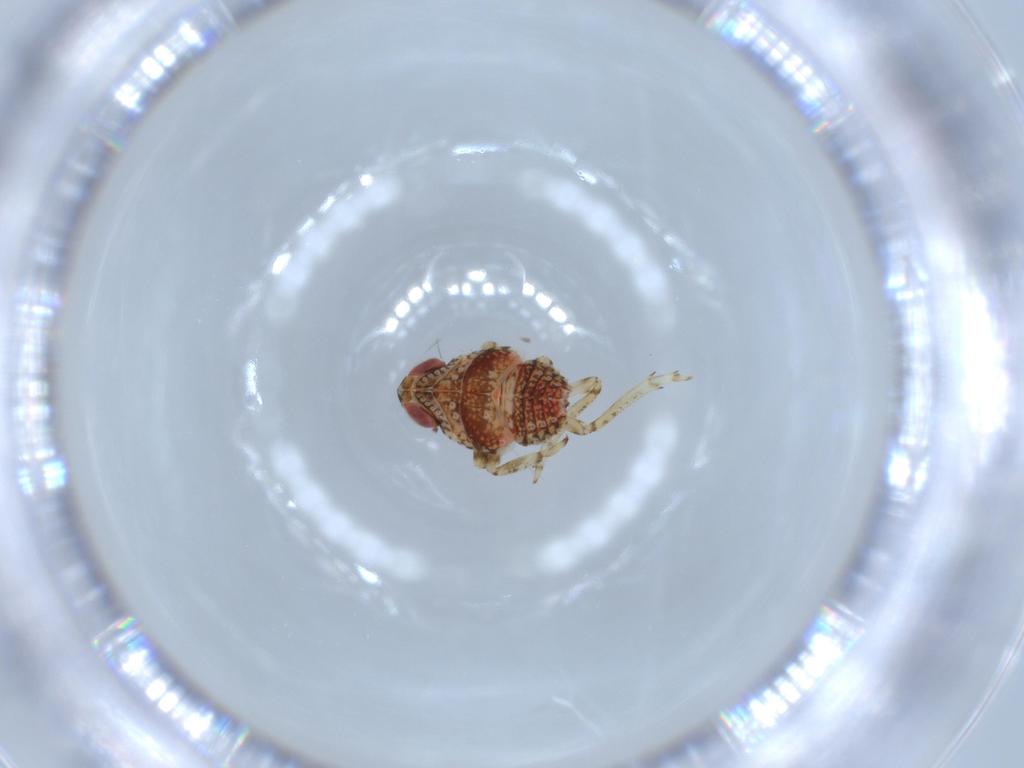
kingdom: Animalia
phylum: Arthropoda
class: Insecta
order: Hemiptera
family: Issidae
